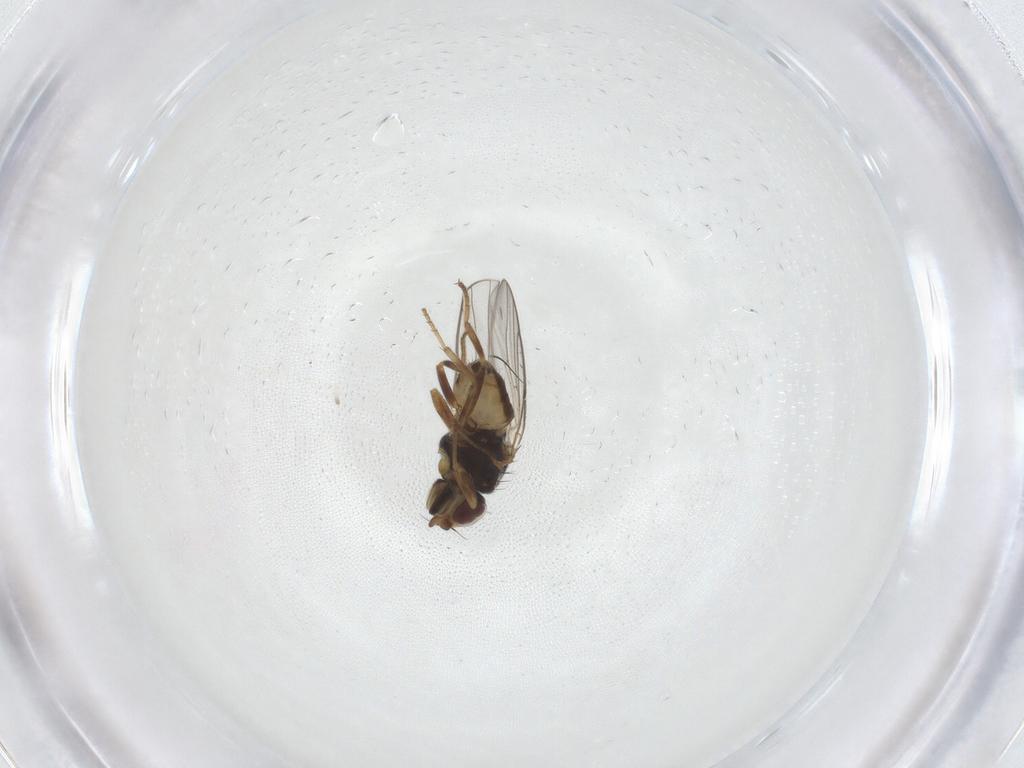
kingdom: Animalia
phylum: Arthropoda
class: Insecta
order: Diptera
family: Chloropidae
